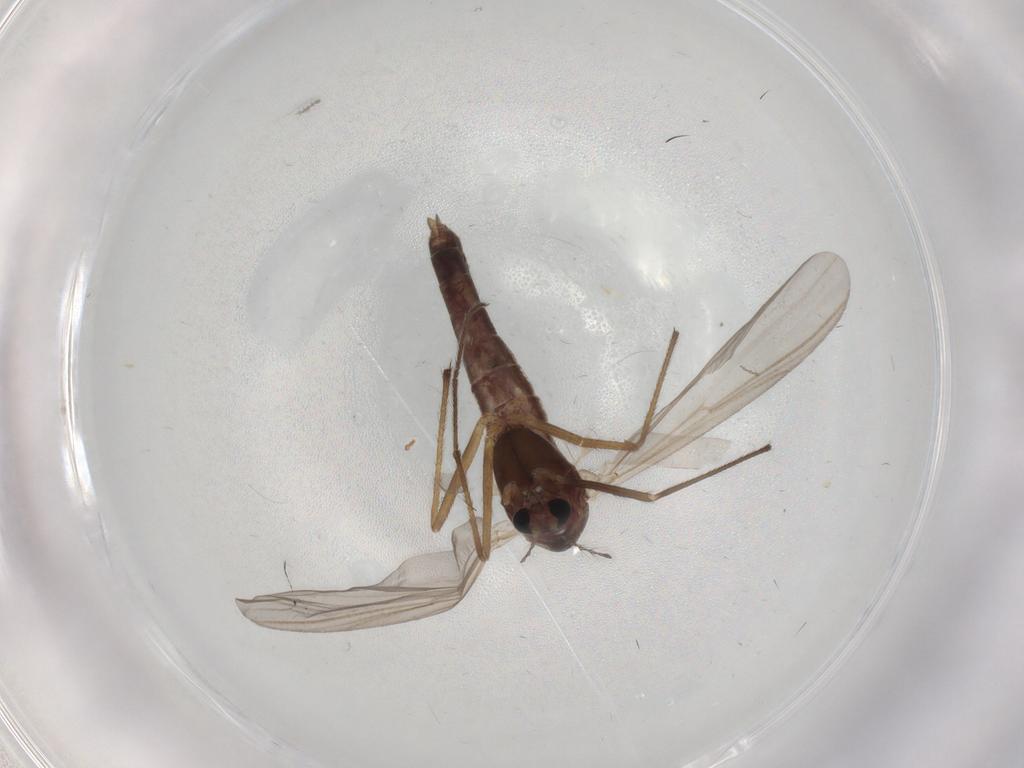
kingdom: Animalia
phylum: Arthropoda
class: Insecta
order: Diptera
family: Chironomidae
